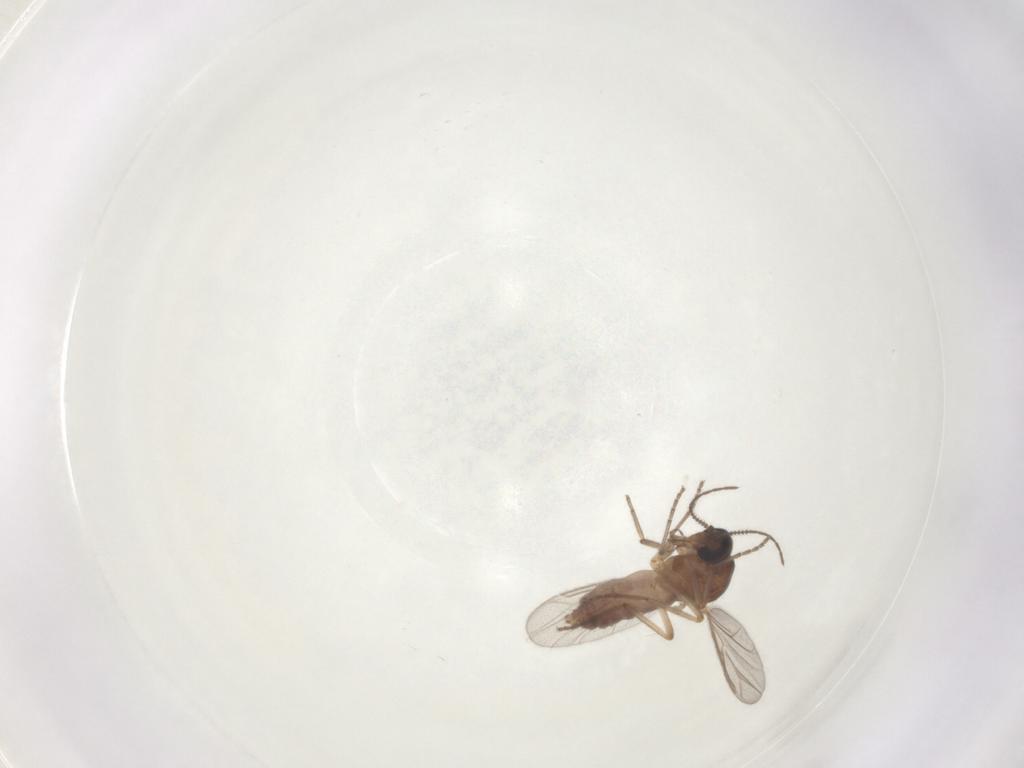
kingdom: Animalia
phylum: Arthropoda
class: Insecta
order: Diptera
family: Ceratopogonidae
